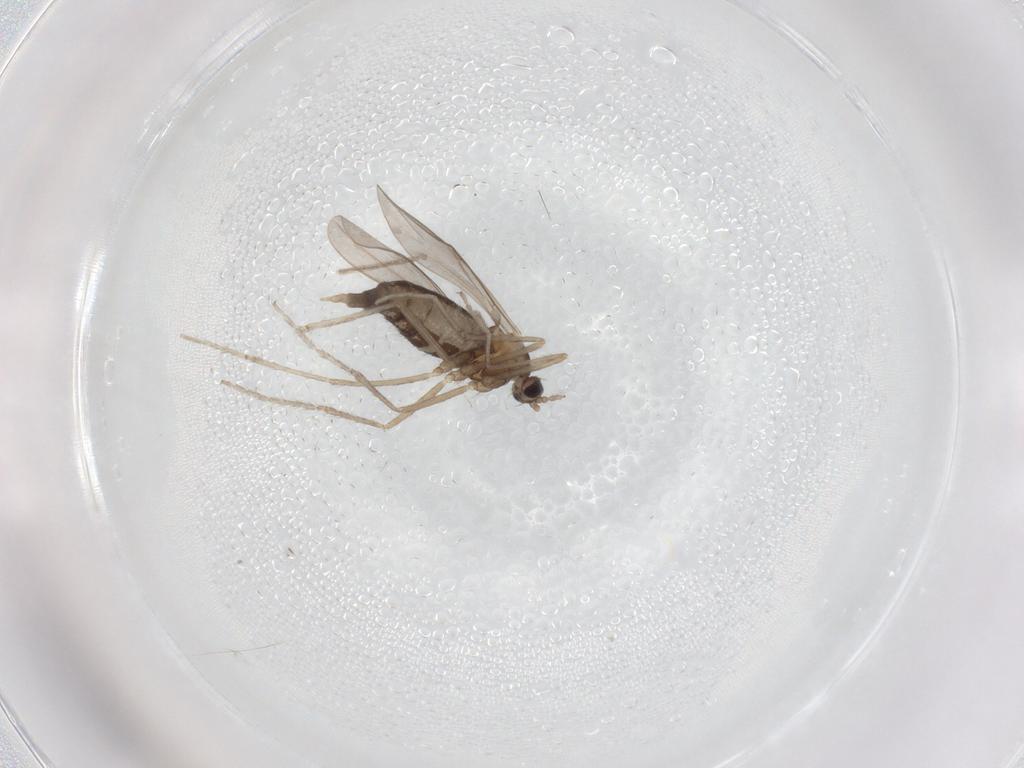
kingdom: Animalia
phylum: Arthropoda
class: Insecta
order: Diptera
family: Cecidomyiidae
